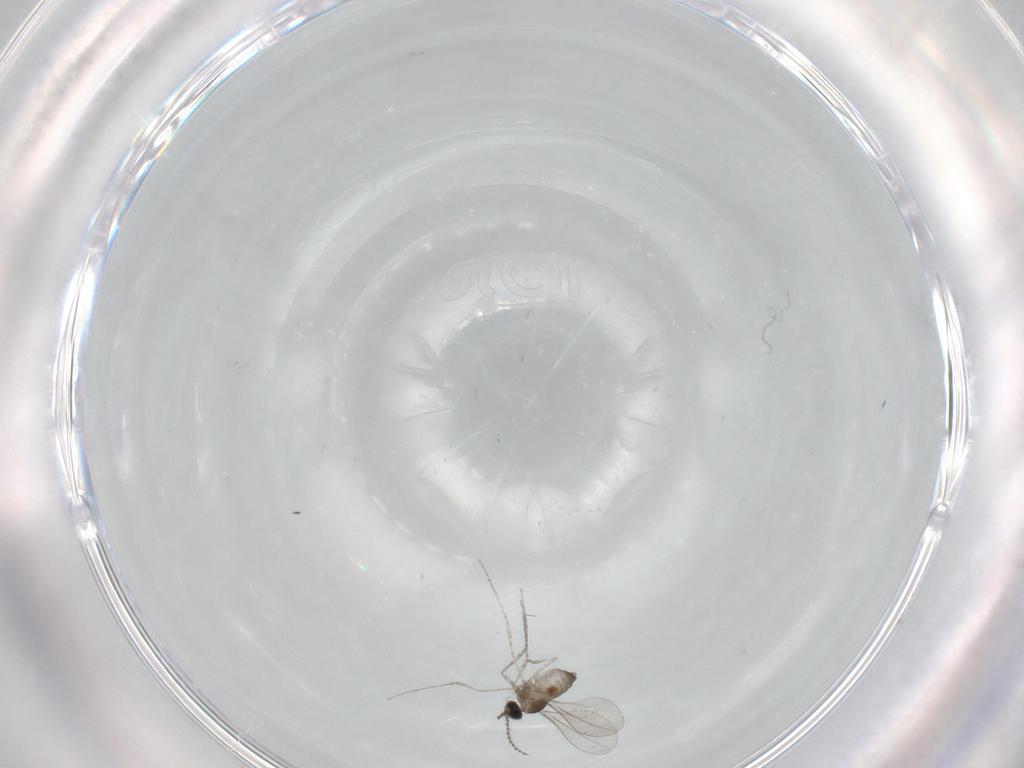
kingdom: Animalia
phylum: Arthropoda
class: Insecta
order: Diptera
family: Cecidomyiidae
